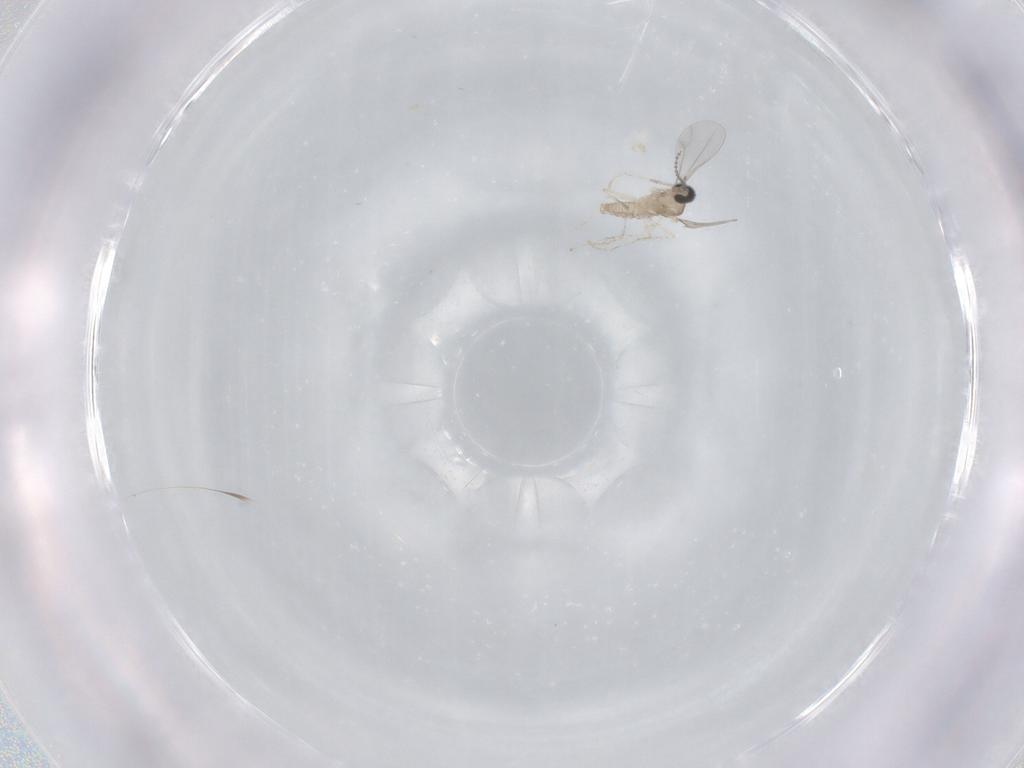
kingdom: Animalia
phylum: Arthropoda
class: Insecta
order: Diptera
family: Cecidomyiidae
